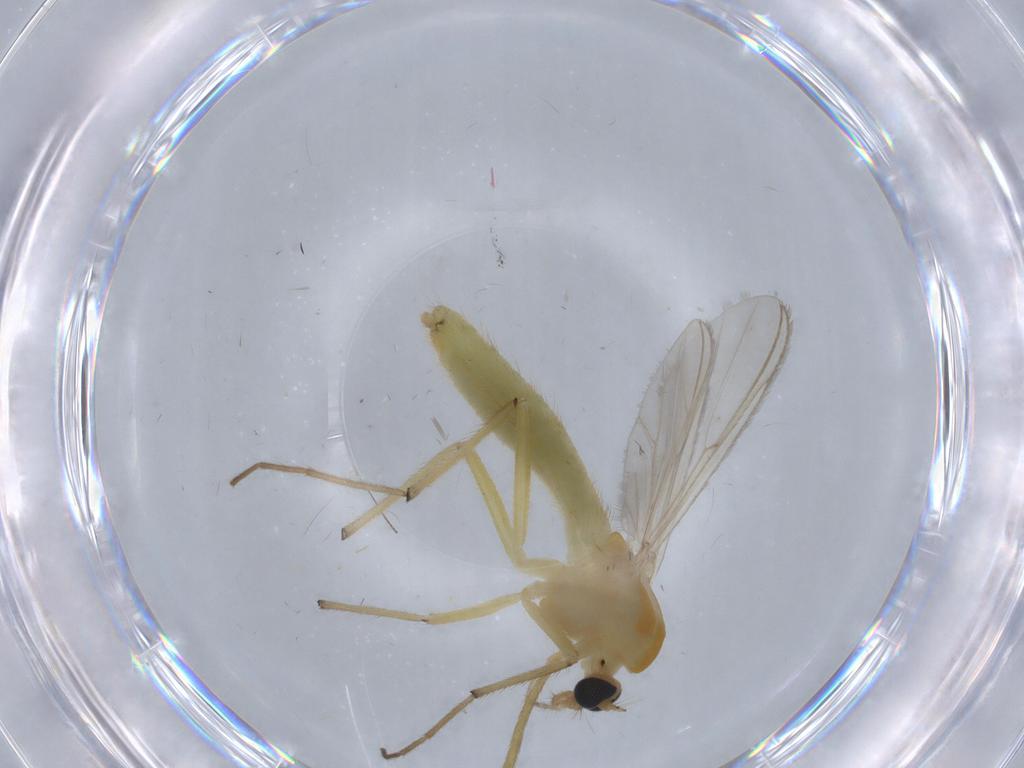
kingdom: Animalia
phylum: Arthropoda
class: Insecta
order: Diptera
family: Chironomidae
